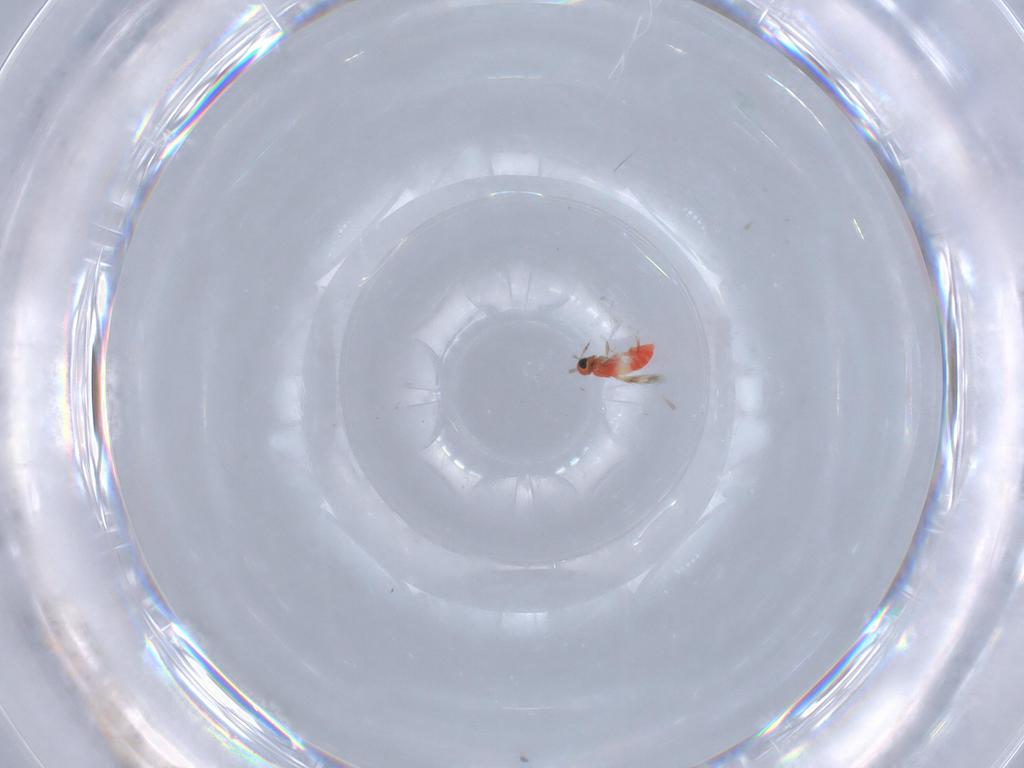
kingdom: Animalia
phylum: Arthropoda
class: Insecta
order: Hymenoptera
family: Trichogrammatidae
